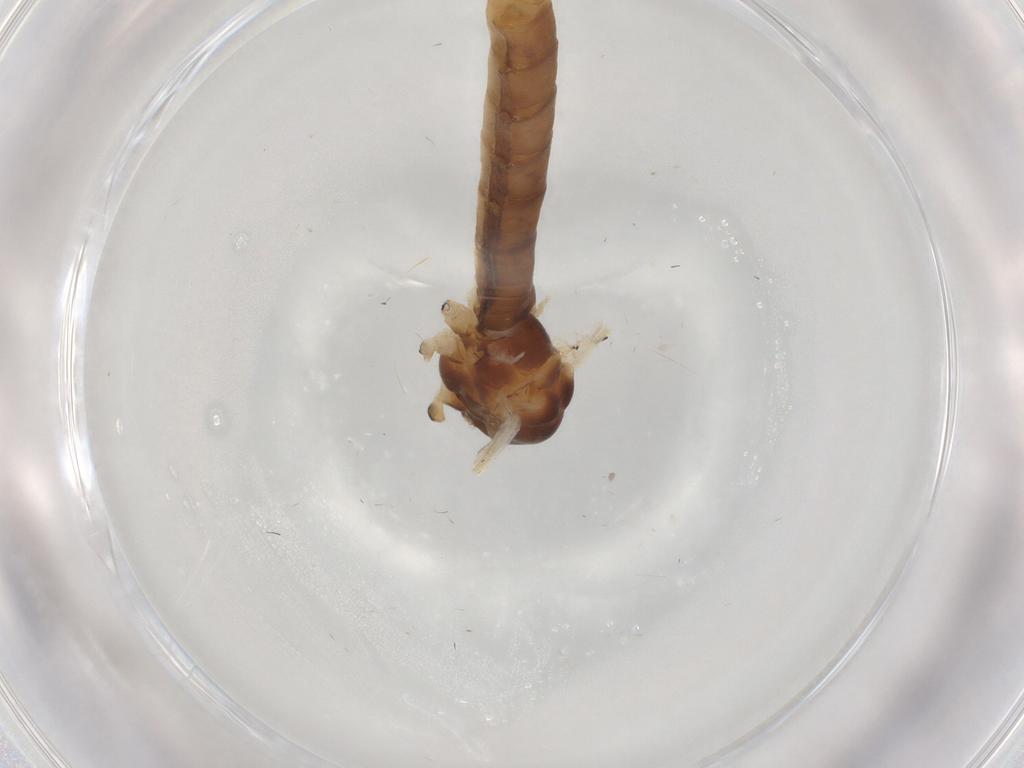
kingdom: Animalia
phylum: Arthropoda
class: Insecta
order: Diptera
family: Limoniidae
